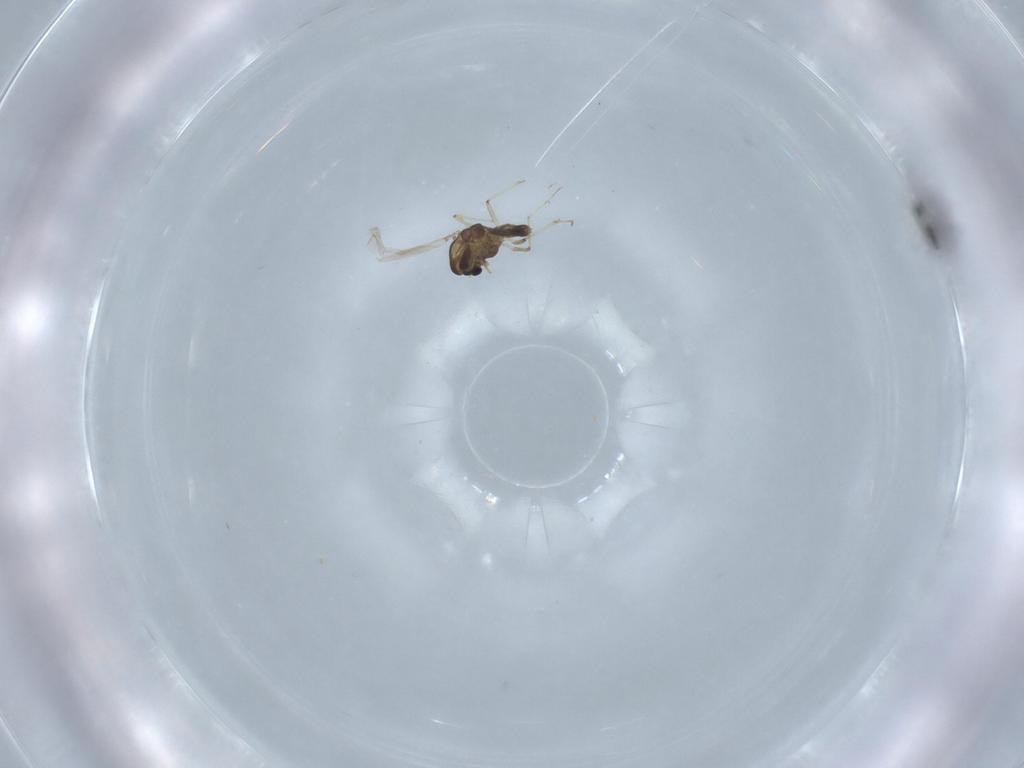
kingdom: Animalia
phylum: Arthropoda
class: Insecta
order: Diptera
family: Chironomidae
